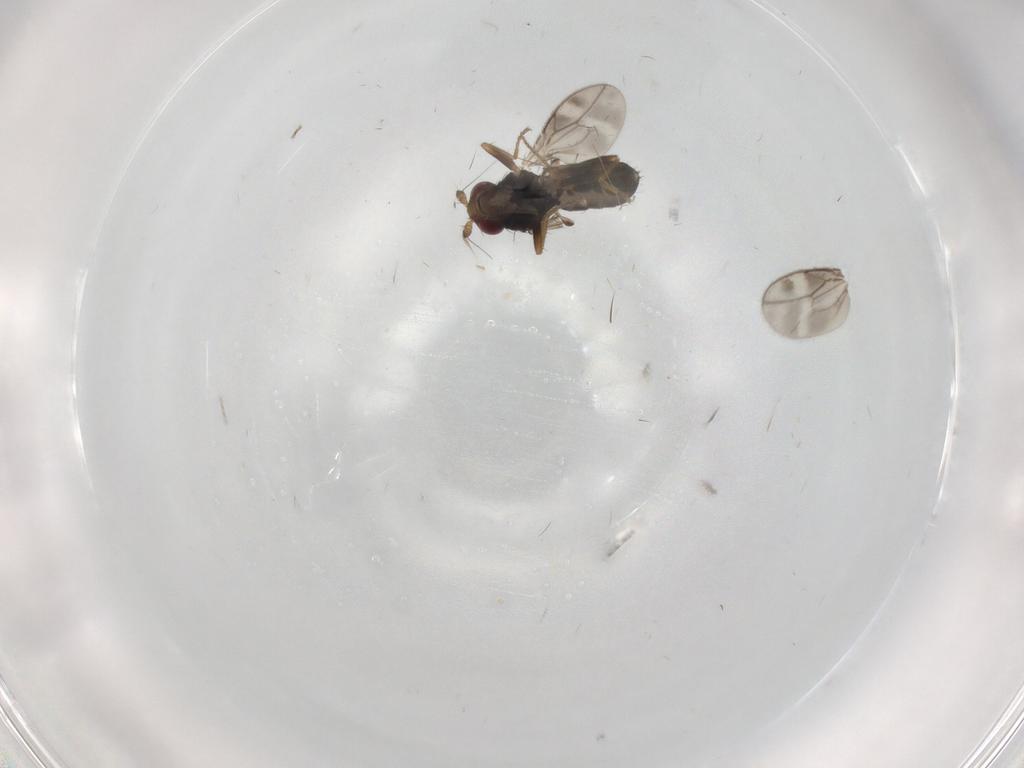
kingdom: Animalia
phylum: Arthropoda
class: Insecta
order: Diptera
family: Sphaeroceridae
